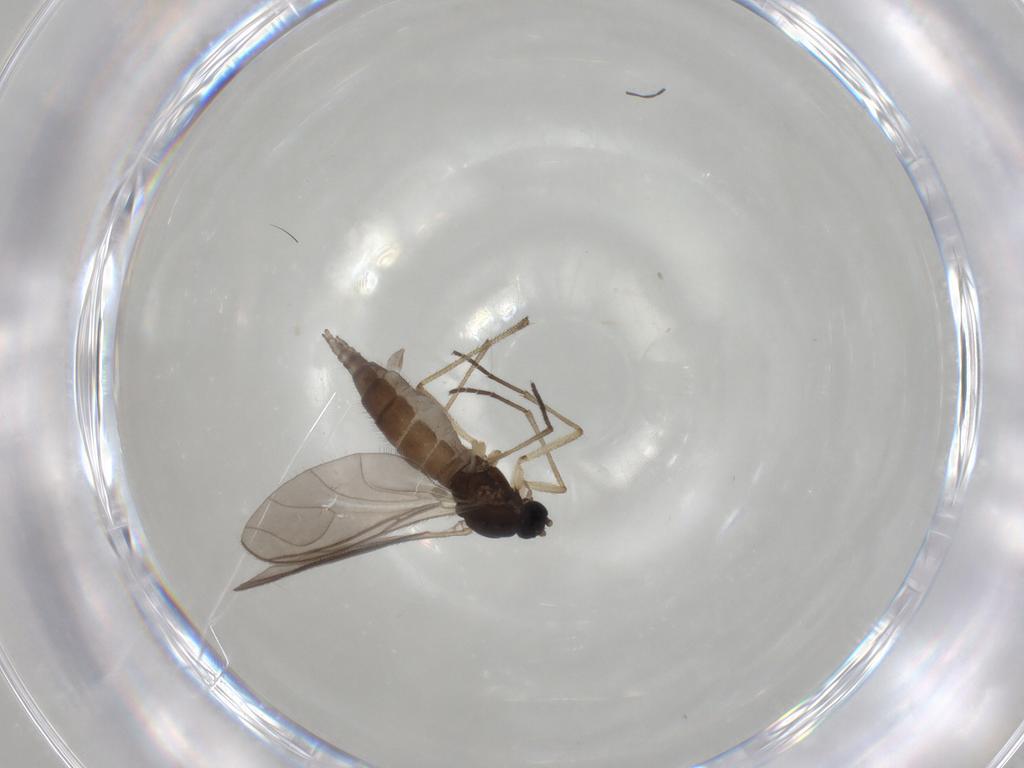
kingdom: Animalia
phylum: Arthropoda
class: Insecta
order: Diptera
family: Sciaridae
